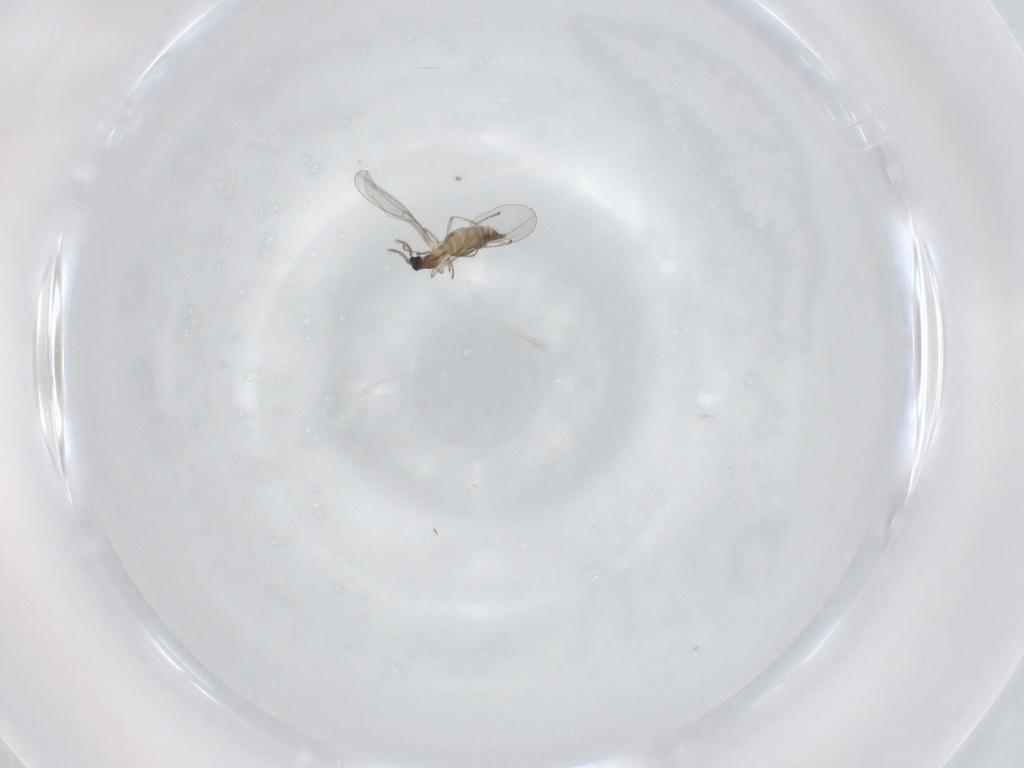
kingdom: Animalia
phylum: Arthropoda
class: Insecta
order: Diptera
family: Cecidomyiidae
